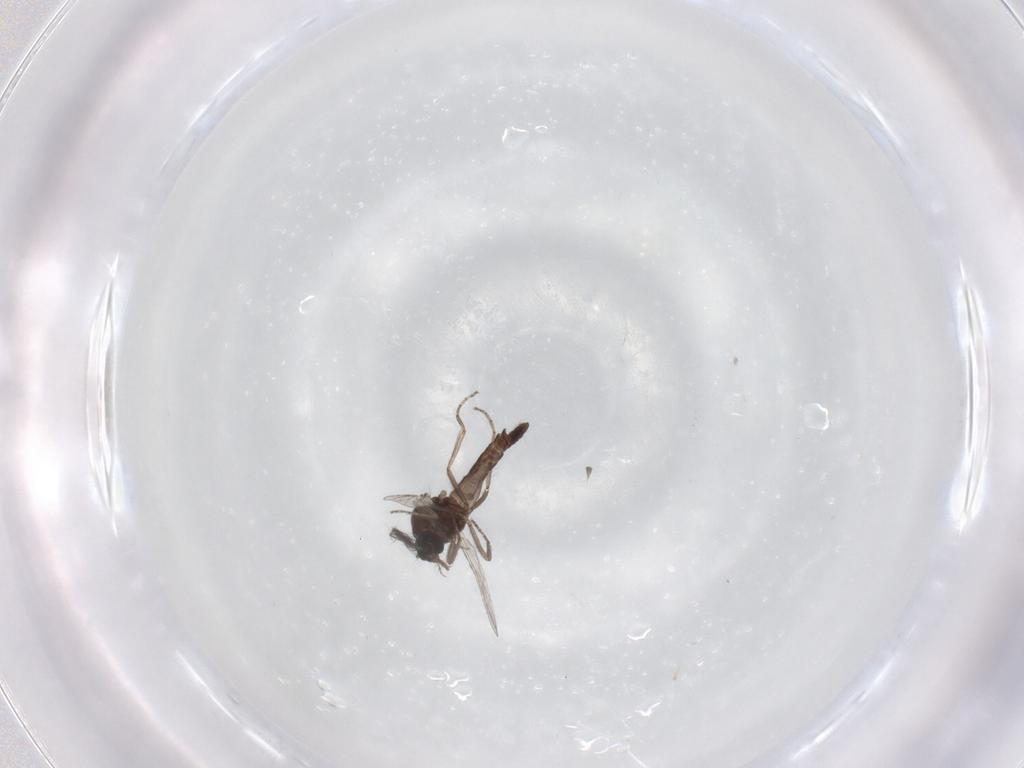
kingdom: Animalia
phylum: Arthropoda
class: Insecta
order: Diptera
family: Ceratopogonidae
